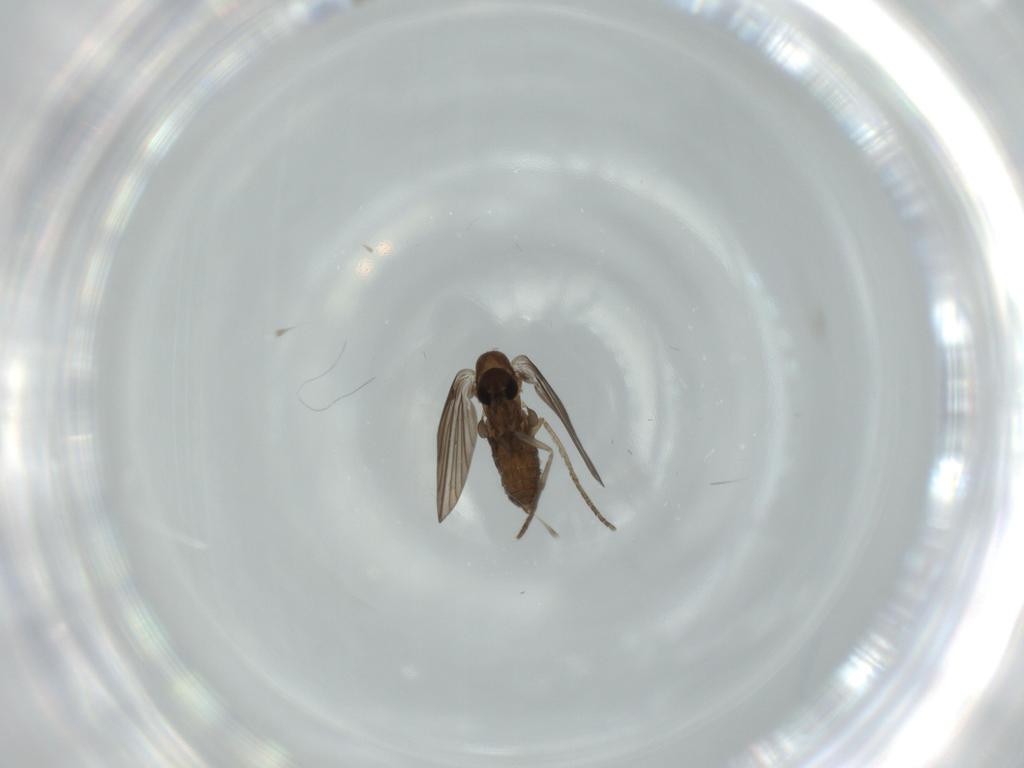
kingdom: Animalia
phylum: Arthropoda
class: Insecta
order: Diptera
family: Psychodidae
